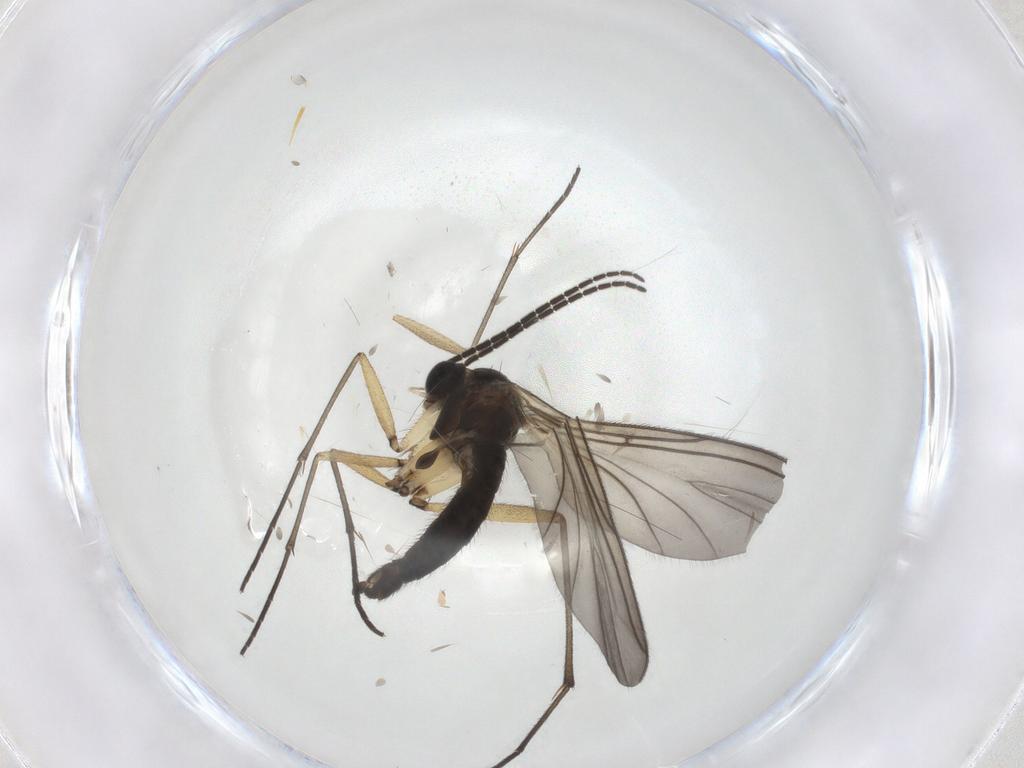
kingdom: Animalia
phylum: Arthropoda
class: Insecta
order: Diptera
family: Sciaridae
